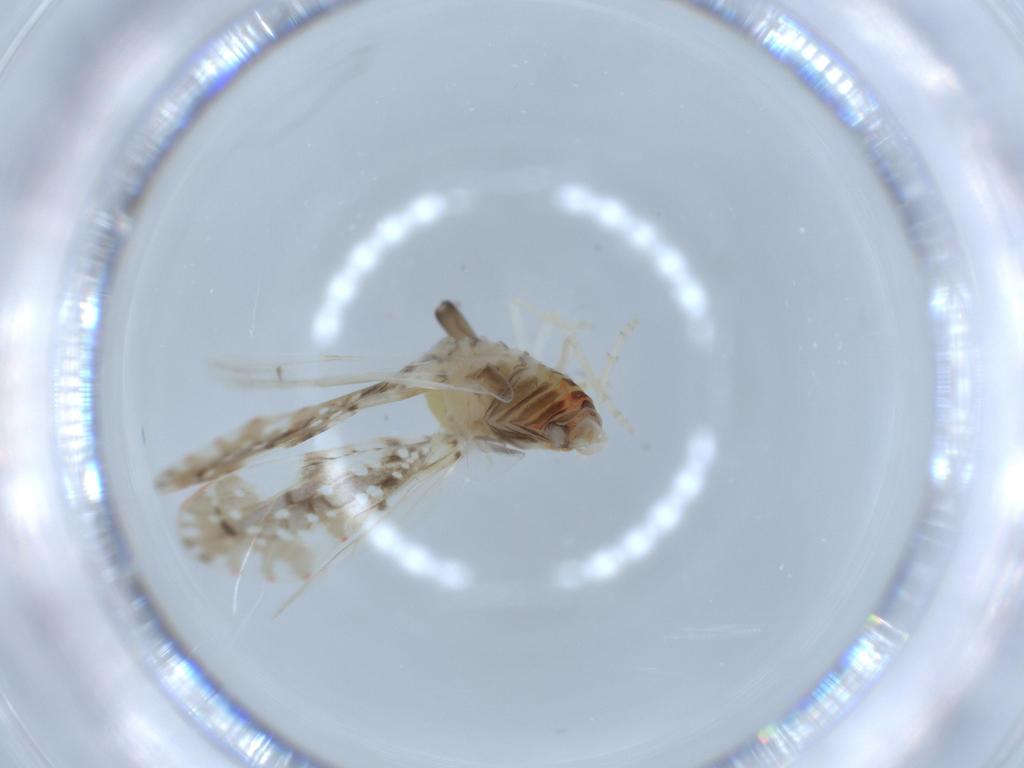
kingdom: Animalia
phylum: Arthropoda
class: Insecta
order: Hemiptera
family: Derbidae
